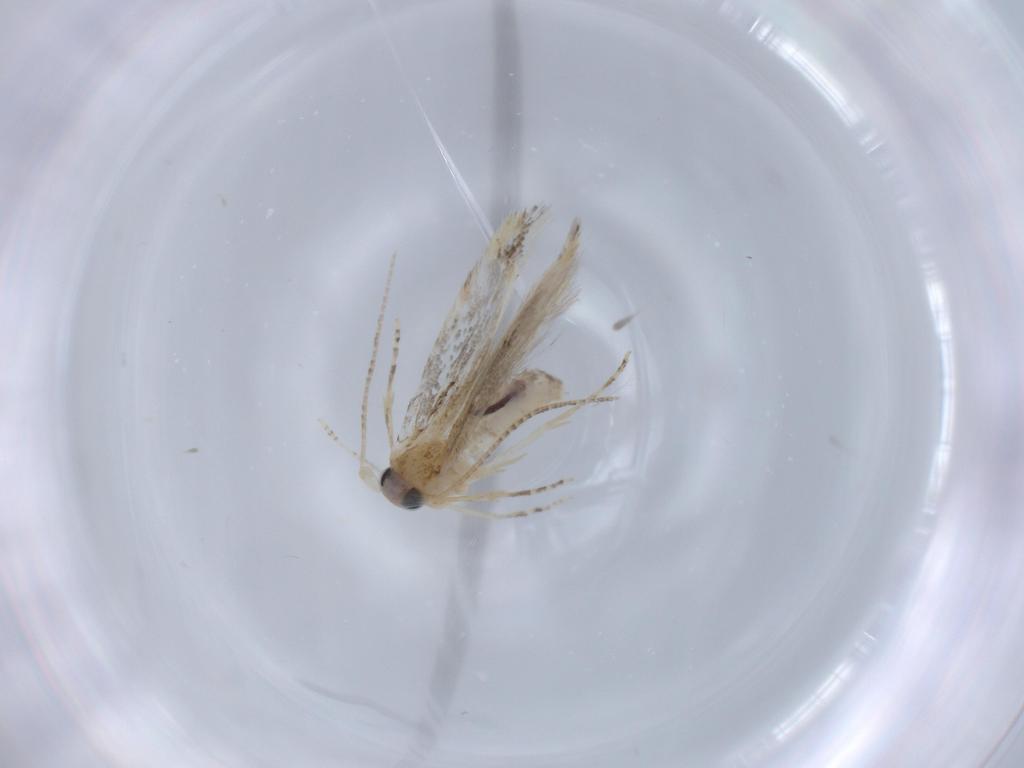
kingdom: Animalia
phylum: Arthropoda
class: Insecta
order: Lepidoptera
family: Bucculatricidae
